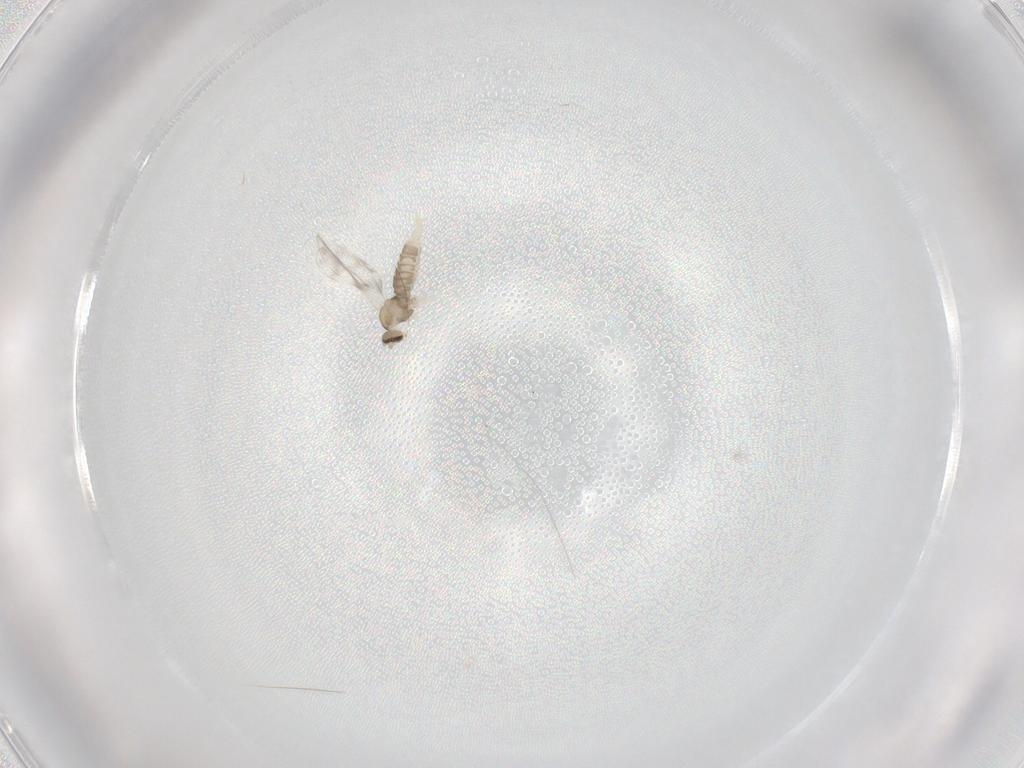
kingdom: Animalia
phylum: Arthropoda
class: Insecta
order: Diptera
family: Cecidomyiidae
